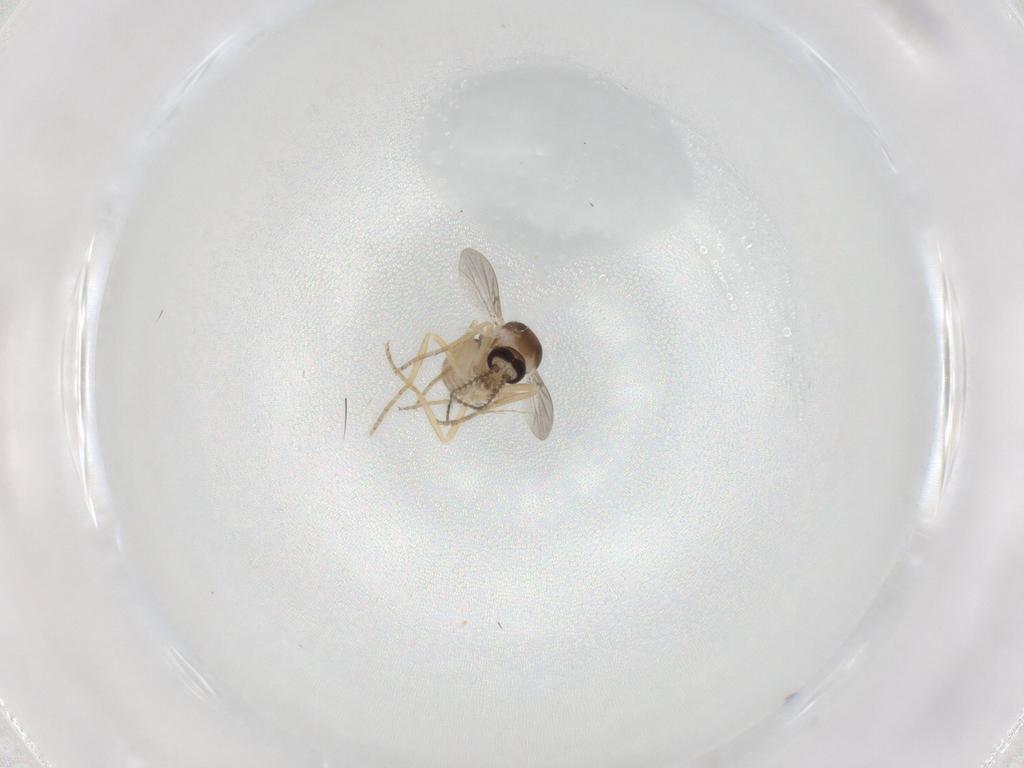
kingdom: Animalia
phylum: Arthropoda
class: Insecta
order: Diptera
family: Ceratopogonidae
